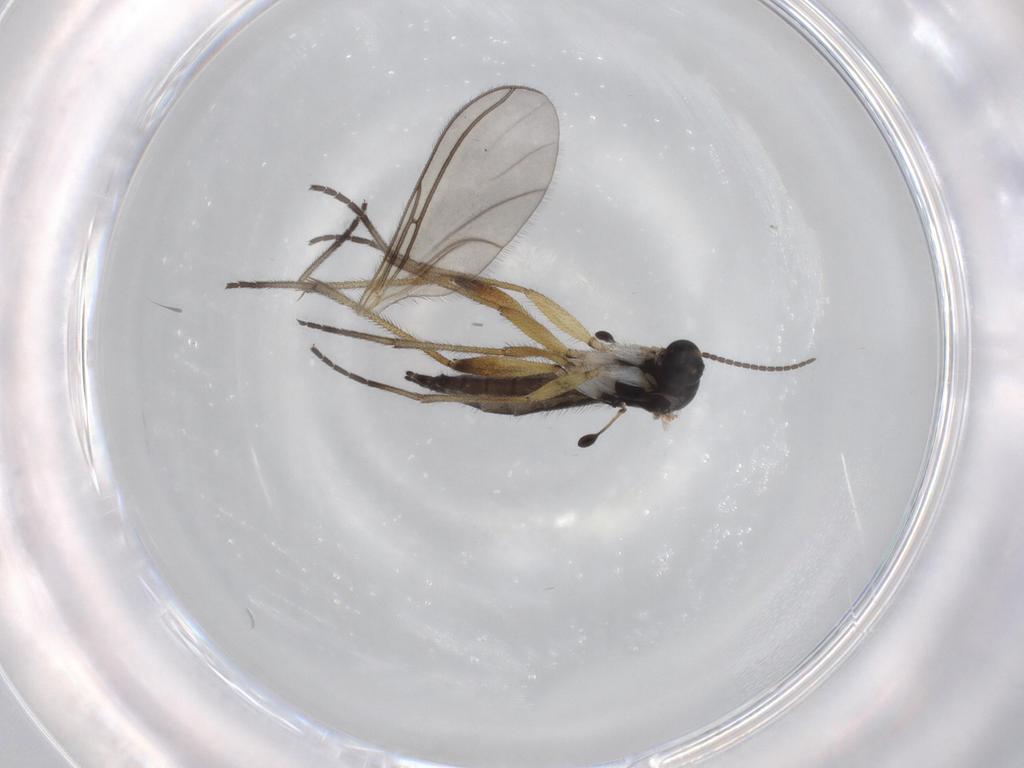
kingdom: Animalia
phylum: Arthropoda
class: Insecta
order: Diptera
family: Sciaridae
